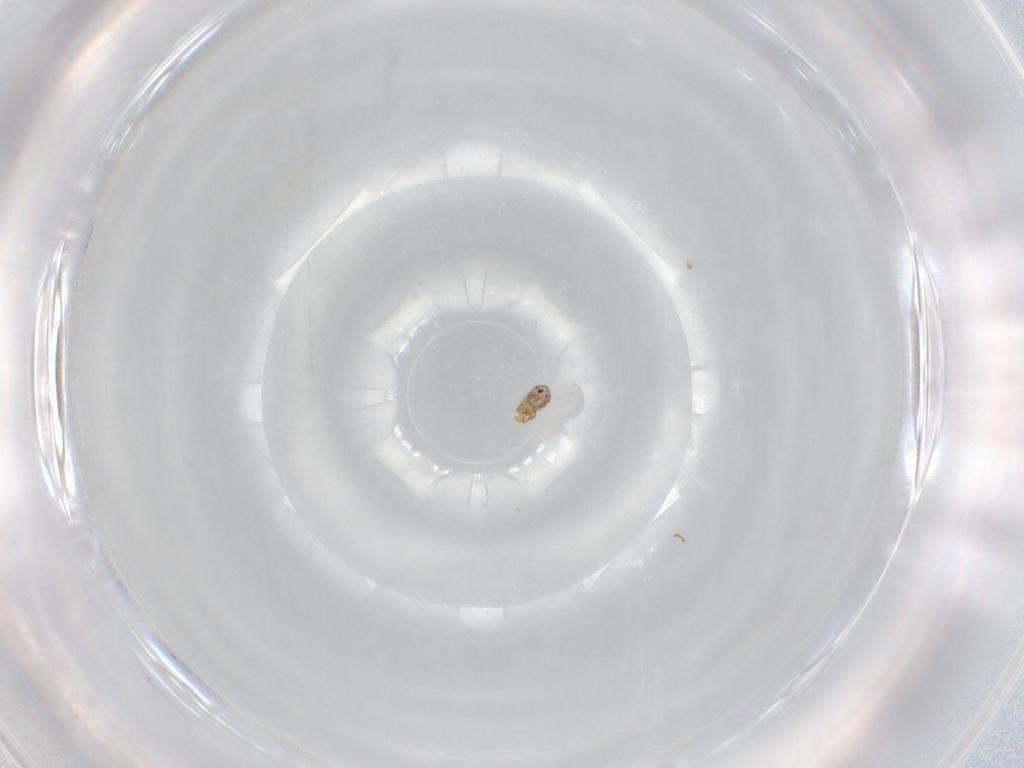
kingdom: Animalia
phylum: Arthropoda
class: Arachnida
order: Sarcoptiformes
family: Humerobatidae
